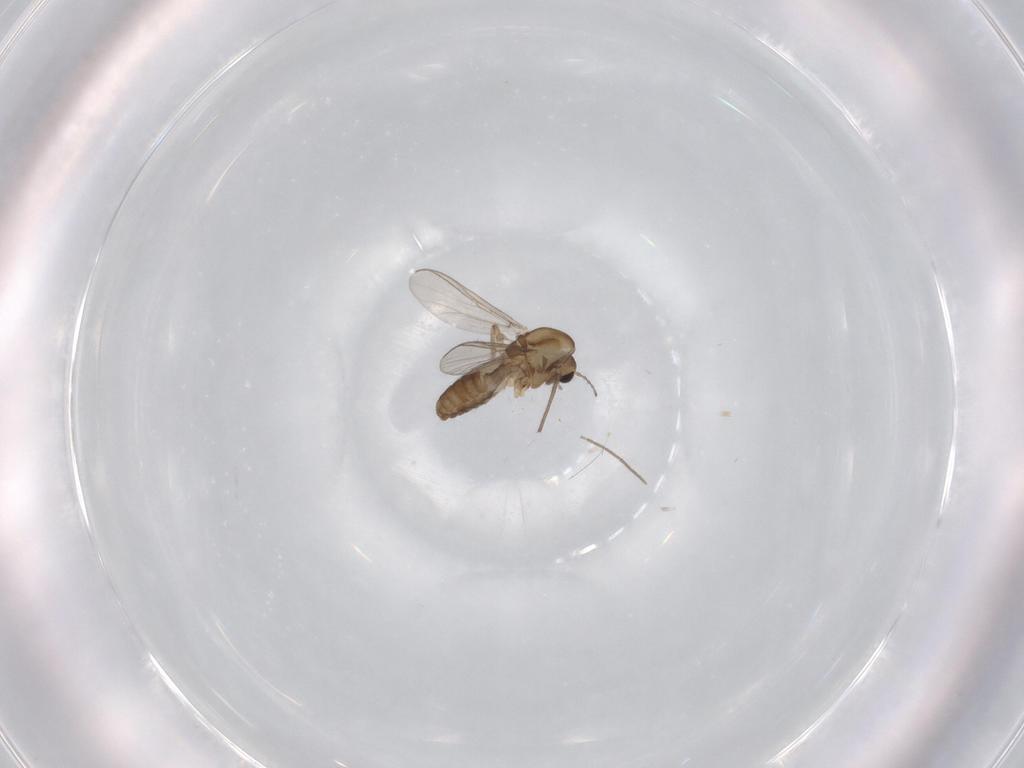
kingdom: Animalia
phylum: Arthropoda
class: Insecta
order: Diptera
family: Chironomidae
